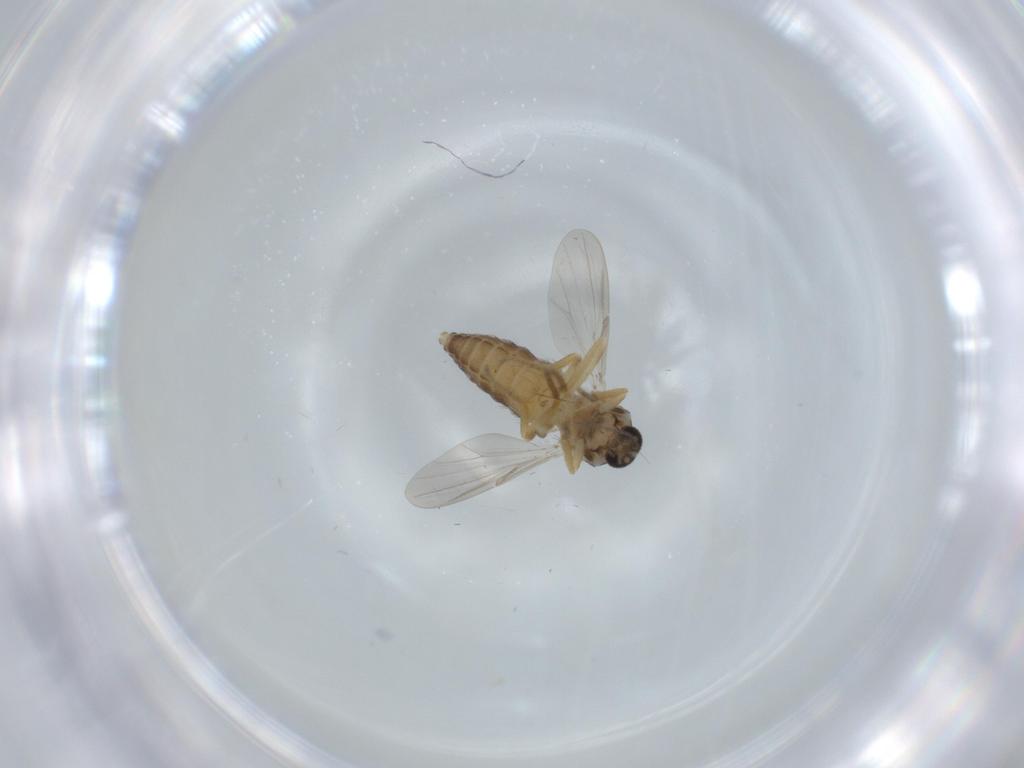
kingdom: Animalia
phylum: Arthropoda
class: Insecta
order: Diptera
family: Ceratopogonidae
